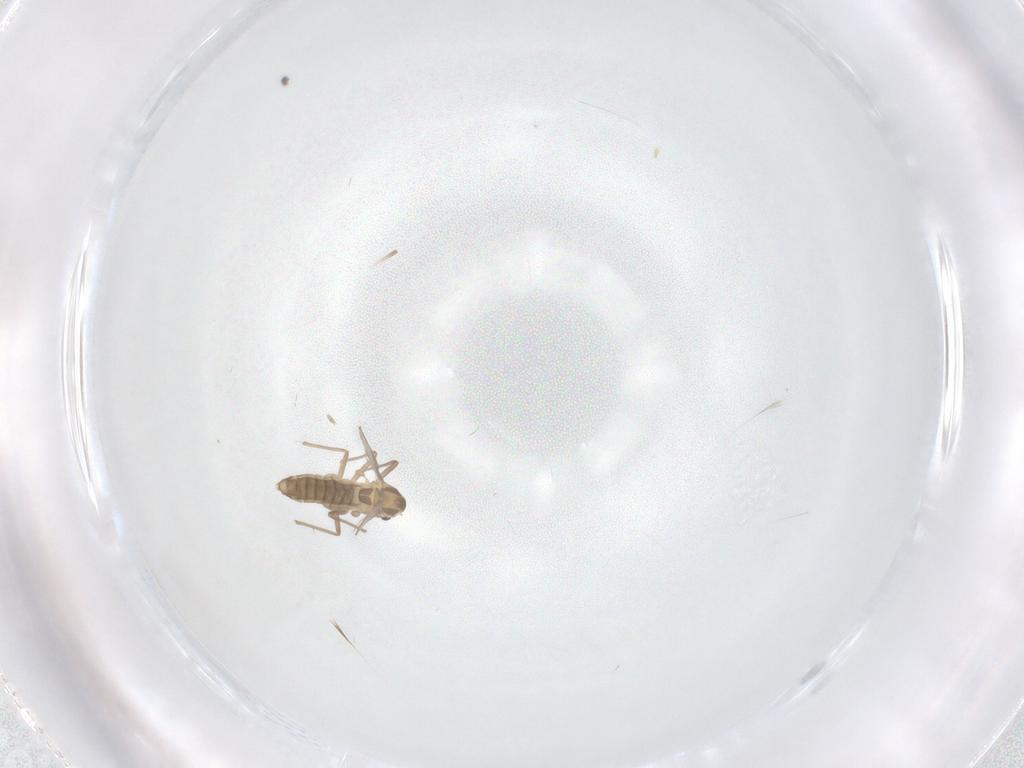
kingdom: Animalia
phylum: Arthropoda
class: Insecta
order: Diptera
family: Chironomidae
